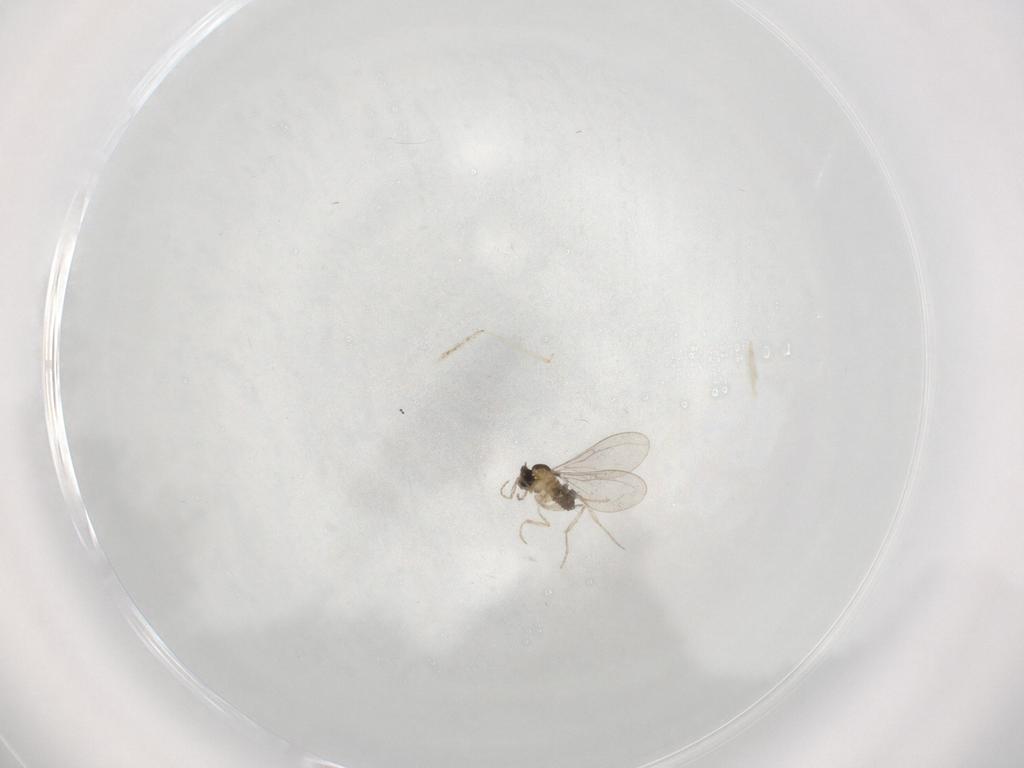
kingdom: Animalia
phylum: Arthropoda
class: Insecta
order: Diptera
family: Cecidomyiidae
